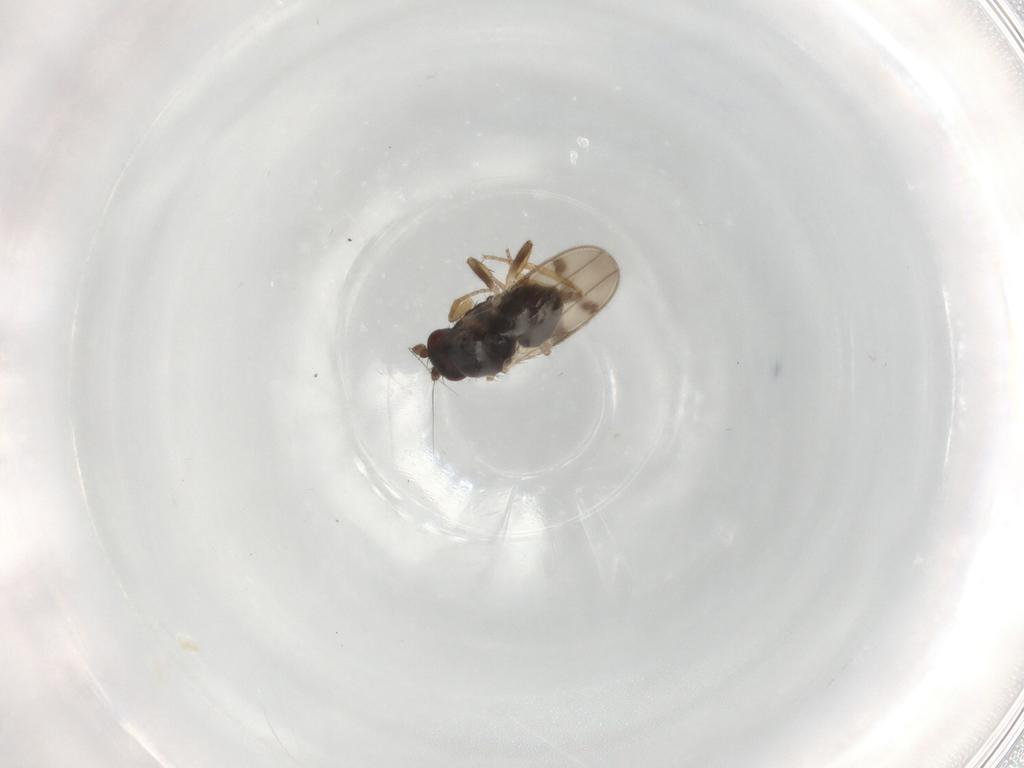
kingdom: Animalia
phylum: Arthropoda
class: Insecta
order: Diptera
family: Sphaeroceridae
